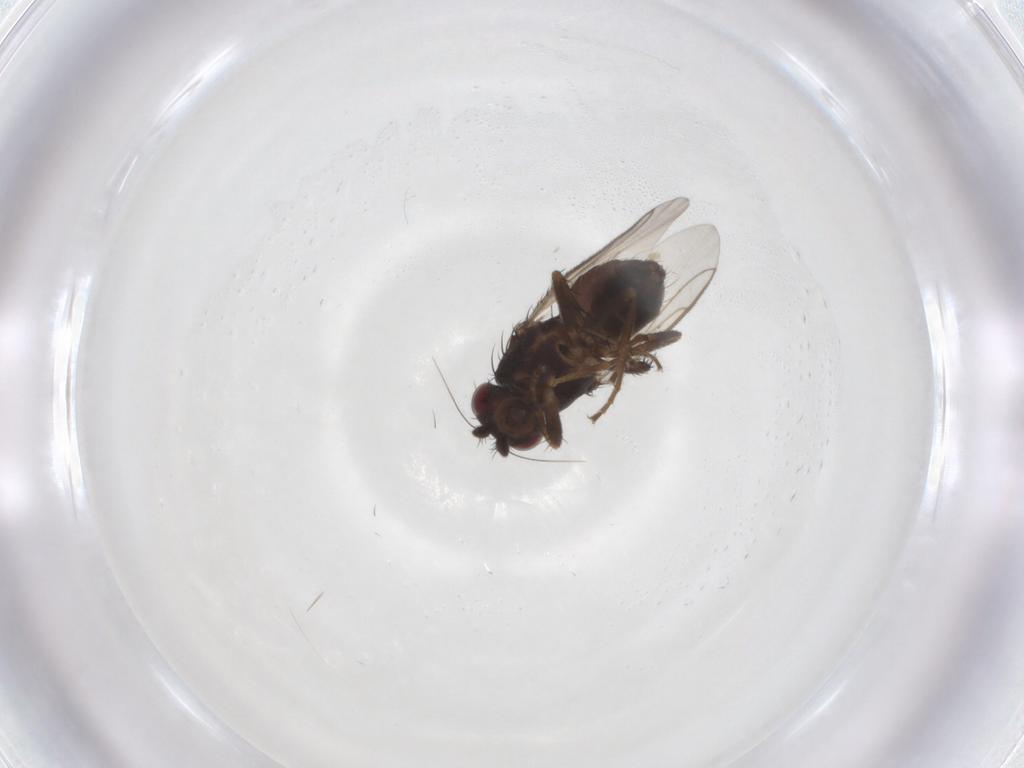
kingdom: Animalia
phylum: Arthropoda
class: Insecta
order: Diptera
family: Sphaeroceridae
